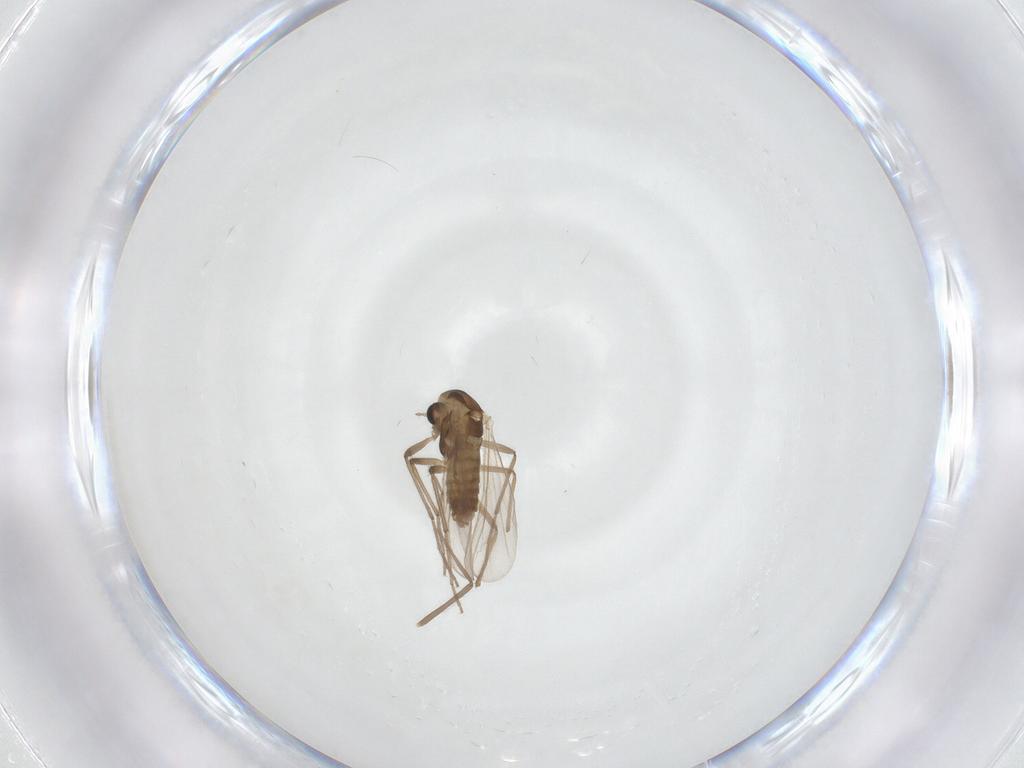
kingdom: Animalia
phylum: Arthropoda
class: Insecta
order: Diptera
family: Chironomidae
